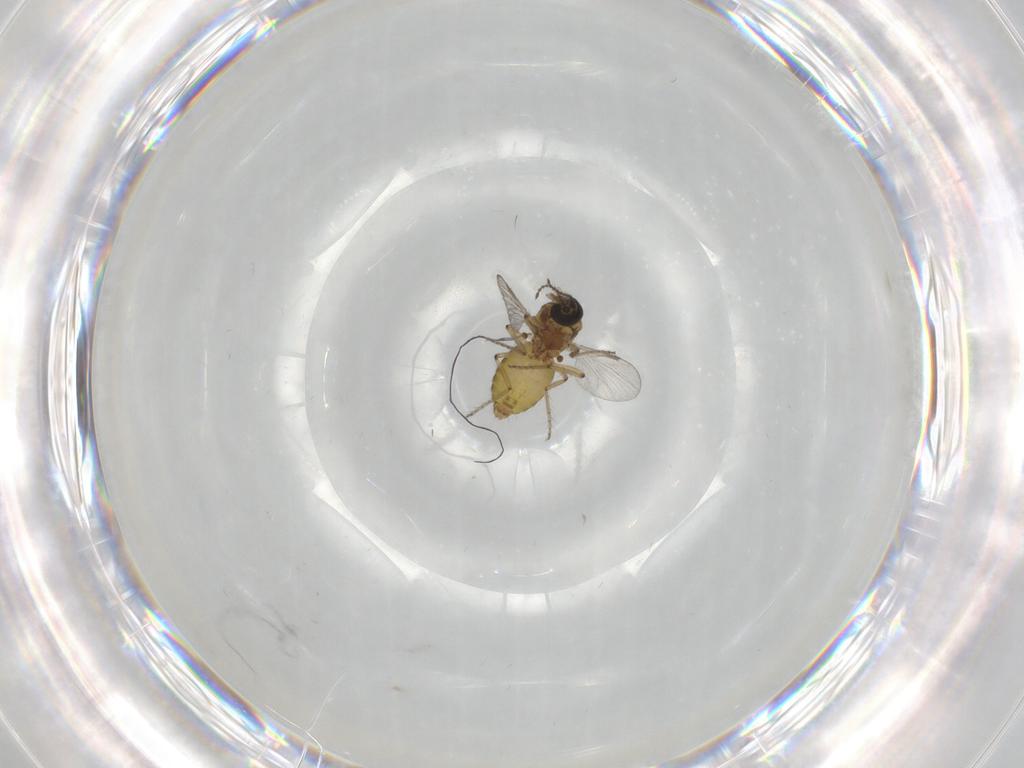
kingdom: Animalia
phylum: Arthropoda
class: Insecta
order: Diptera
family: Ceratopogonidae
